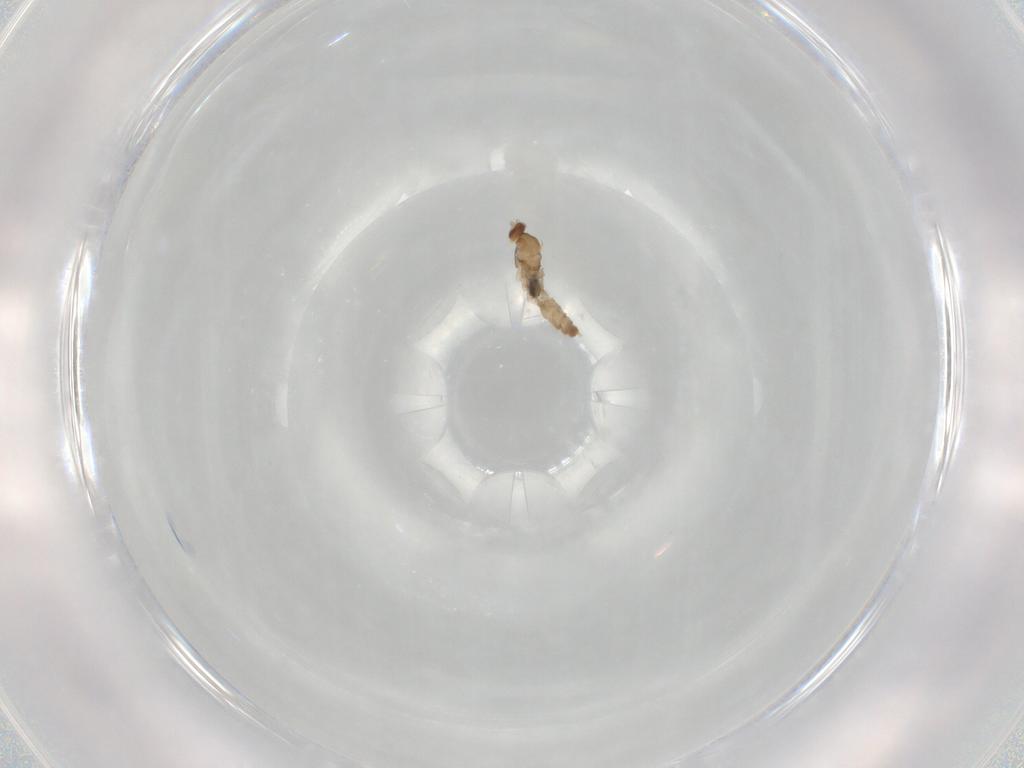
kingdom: Animalia
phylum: Arthropoda
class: Insecta
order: Diptera
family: Cecidomyiidae
